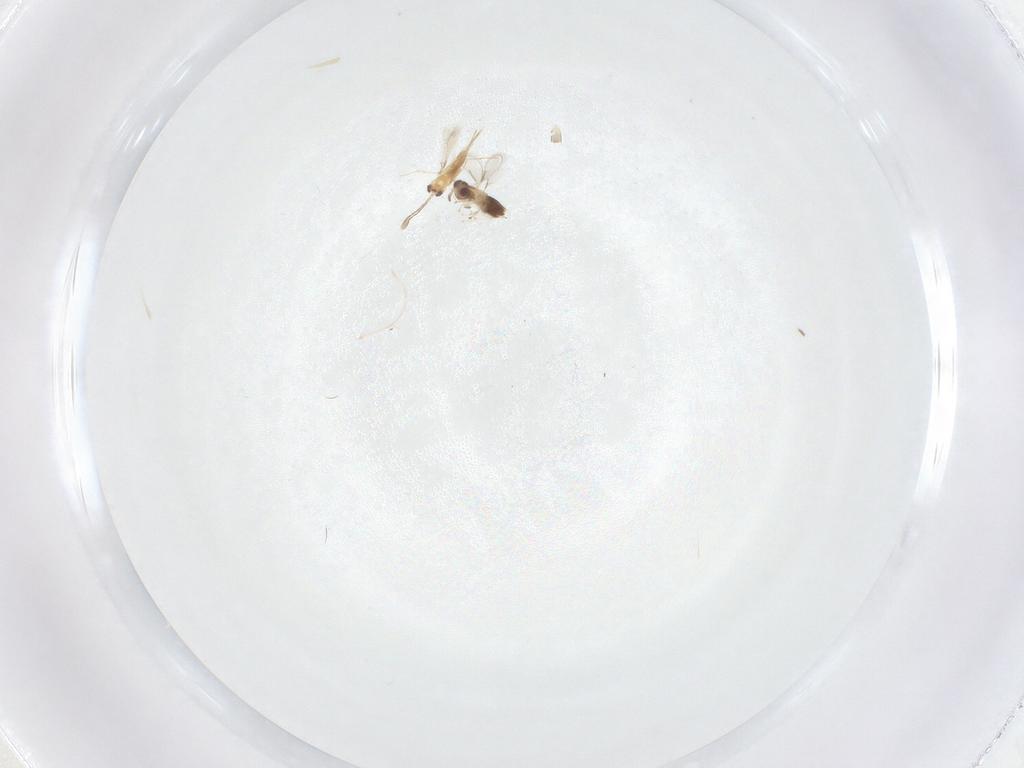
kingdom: Animalia
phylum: Arthropoda
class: Insecta
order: Hymenoptera
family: Aphelinidae
